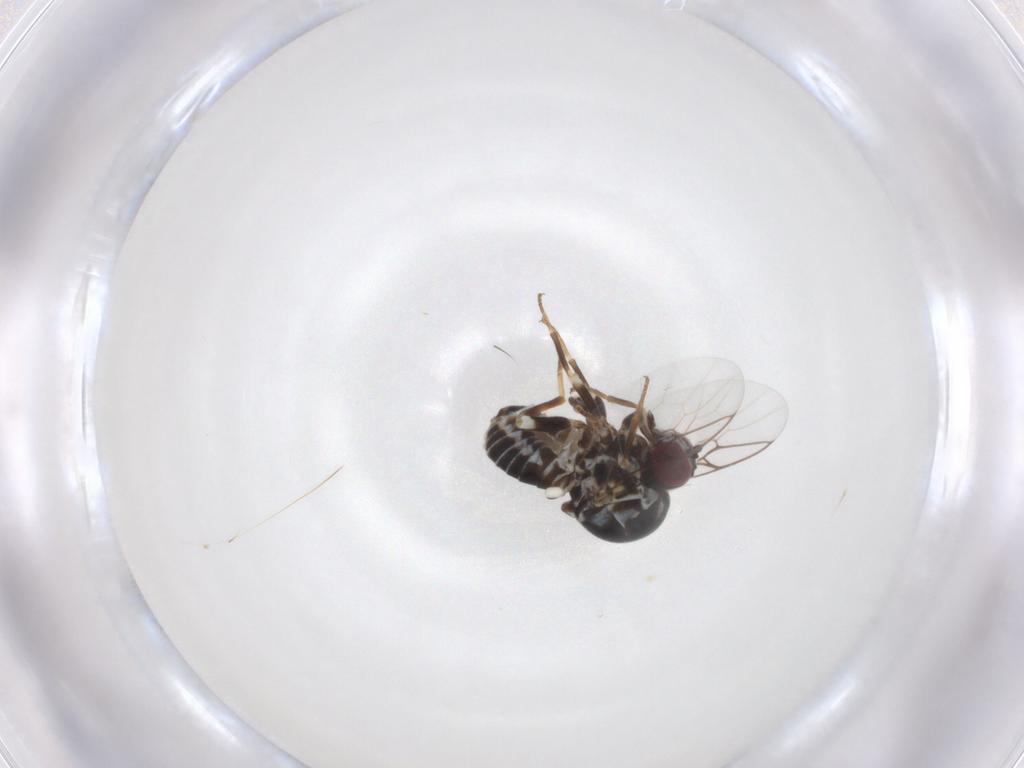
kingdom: Animalia
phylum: Arthropoda
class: Insecta
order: Diptera
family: Bombyliidae
